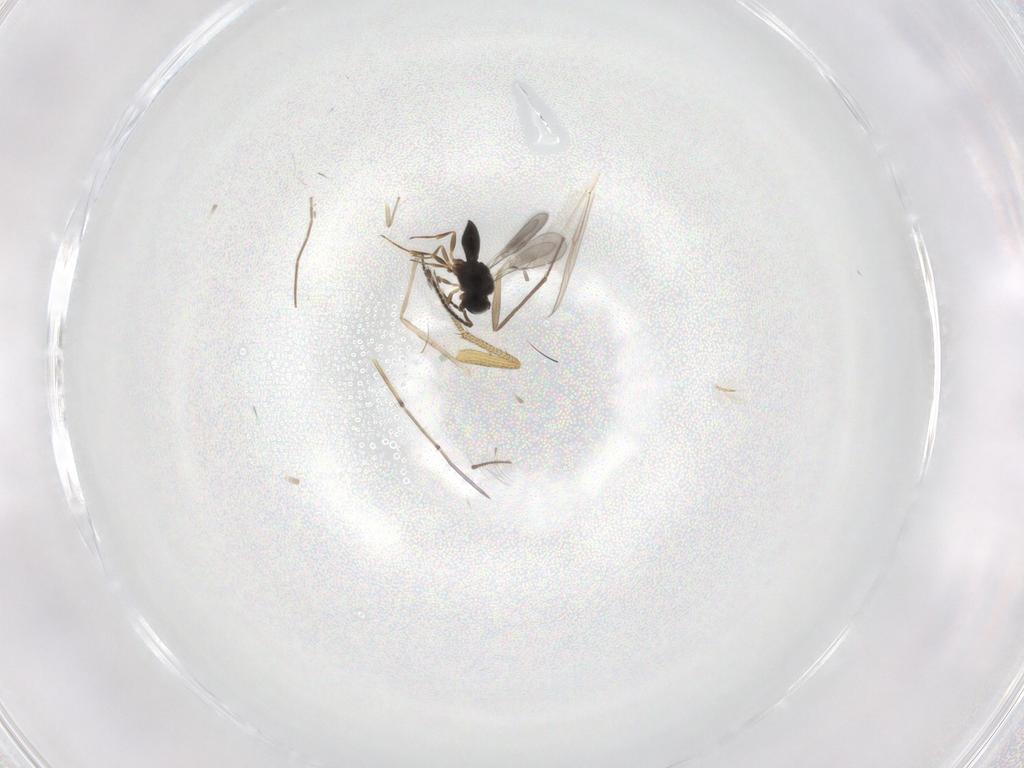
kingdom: Animalia
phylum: Arthropoda
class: Insecta
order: Hymenoptera
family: Scelionidae
